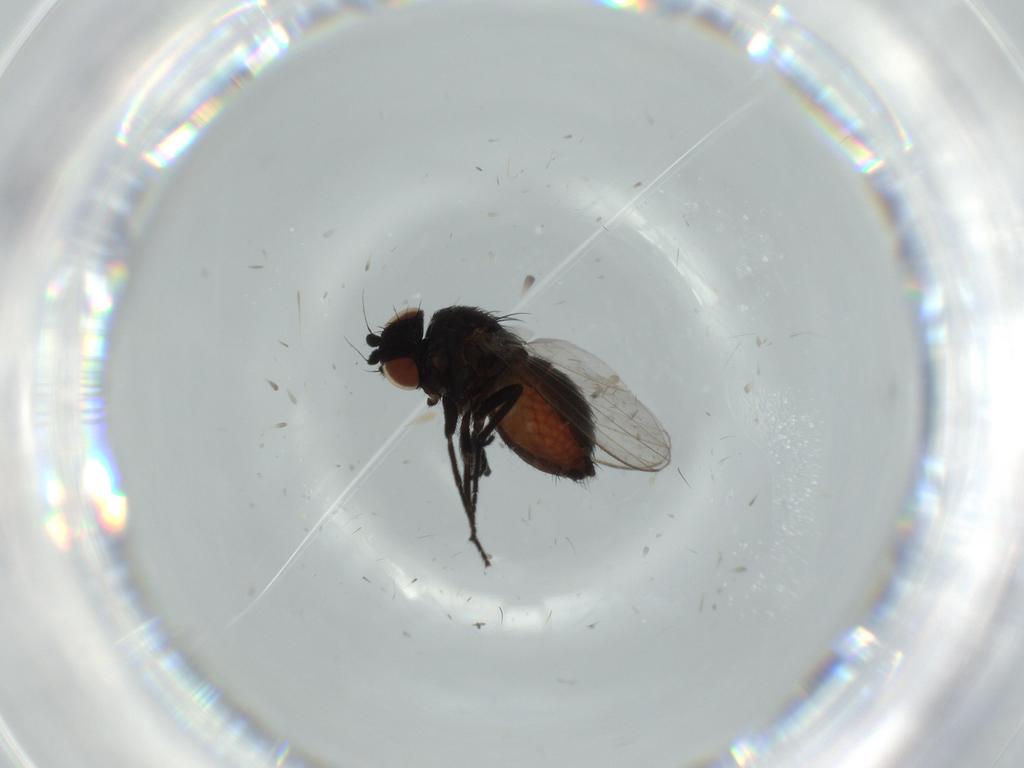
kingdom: Animalia
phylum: Arthropoda
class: Insecta
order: Diptera
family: Milichiidae
